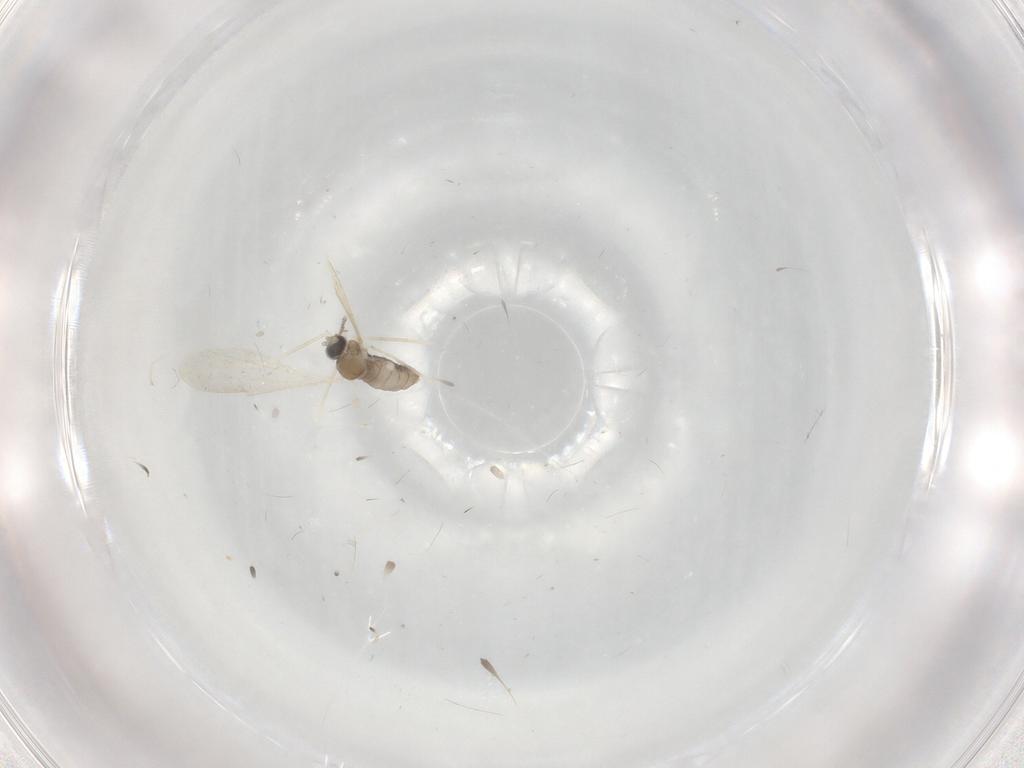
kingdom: Animalia
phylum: Arthropoda
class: Insecta
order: Diptera
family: Cecidomyiidae
